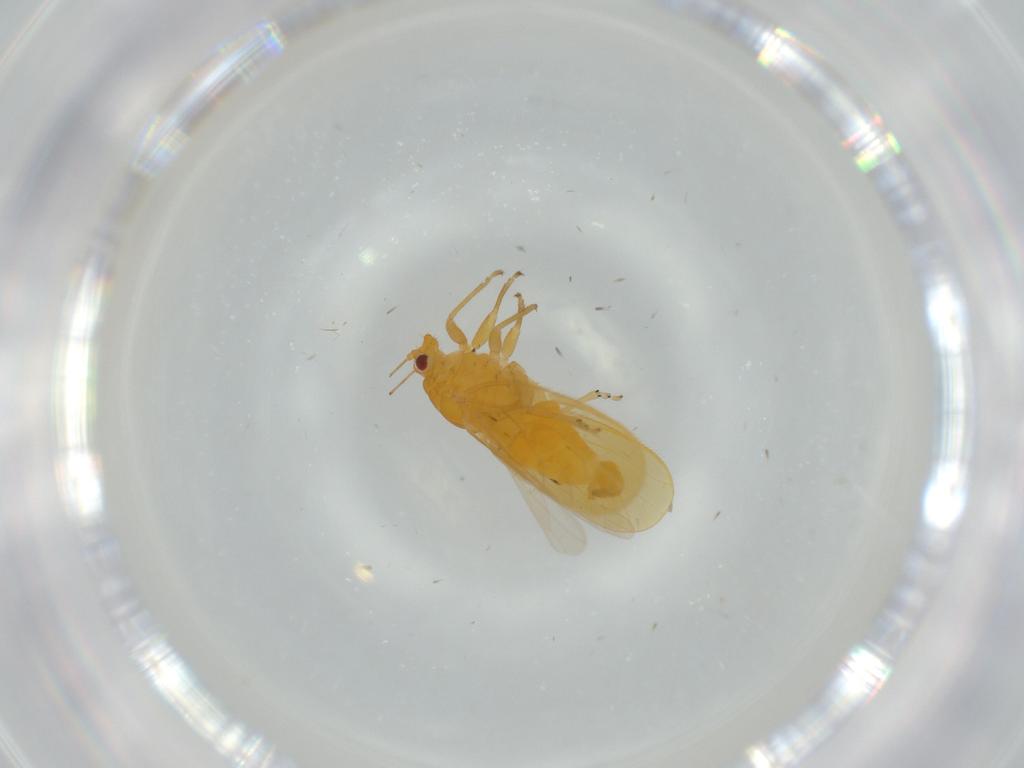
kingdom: Animalia
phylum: Arthropoda
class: Insecta
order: Hemiptera
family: Psyllidae
